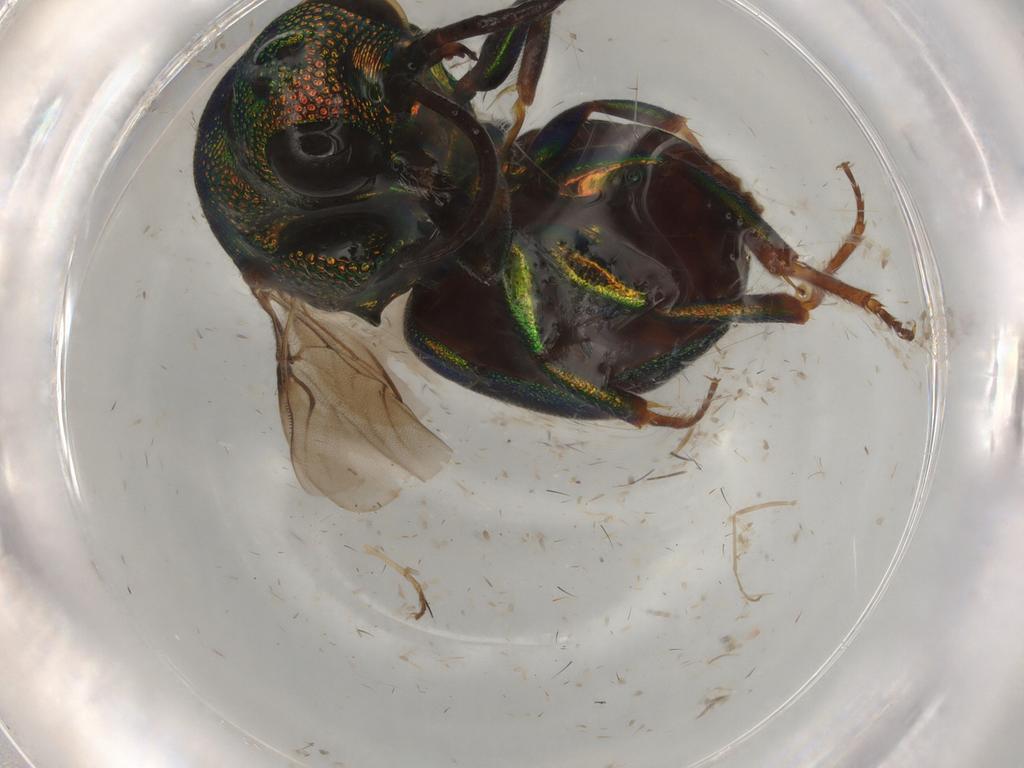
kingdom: Animalia
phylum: Arthropoda
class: Insecta
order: Hymenoptera
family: Chrysididae
